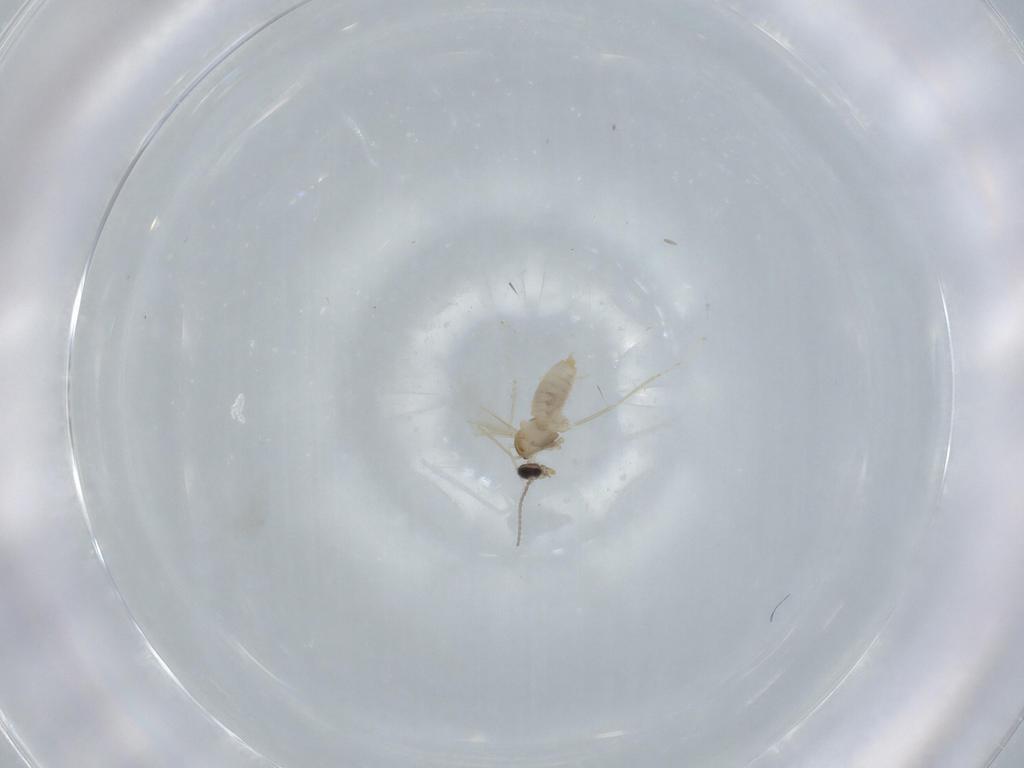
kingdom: Animalia
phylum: Arthropoda
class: Insecta
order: Diptera
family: Cecidomyiidae
